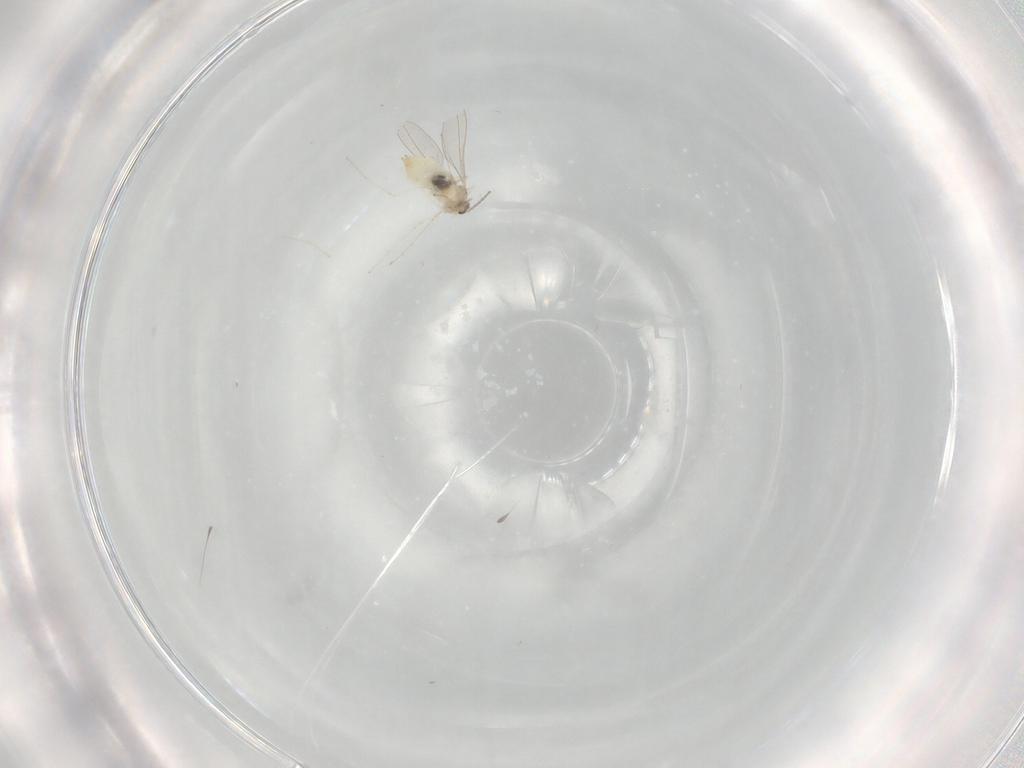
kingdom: Animalia
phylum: Arthropoda
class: Insecta
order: Diptera
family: Cecidomyiidae
